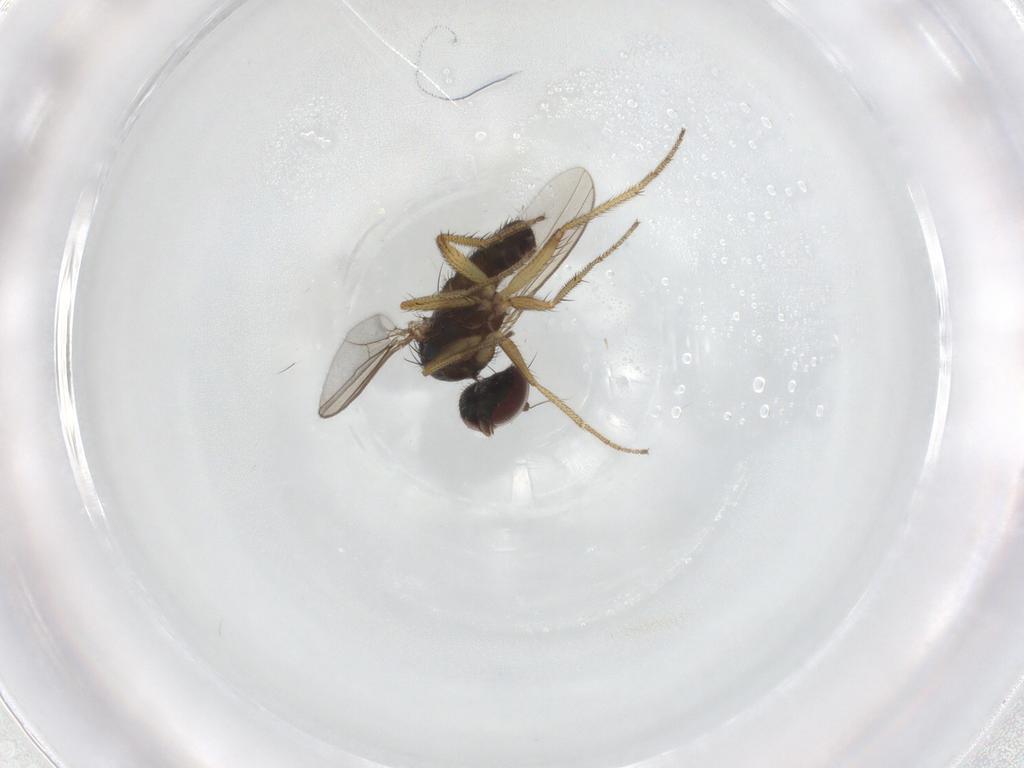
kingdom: Animalia
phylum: Arthropoda
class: Insecta
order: Diptera
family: Dolichopodidae
